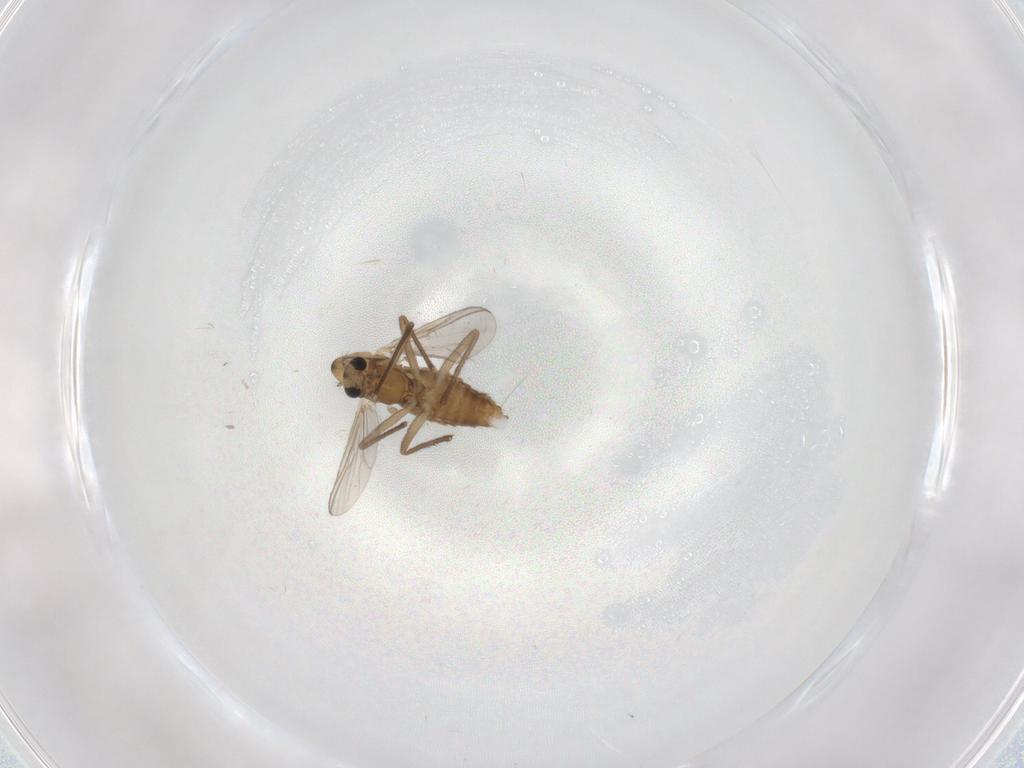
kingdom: Animalia
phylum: Arthropoda
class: Insecta
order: Diptera
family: Chironomidae
